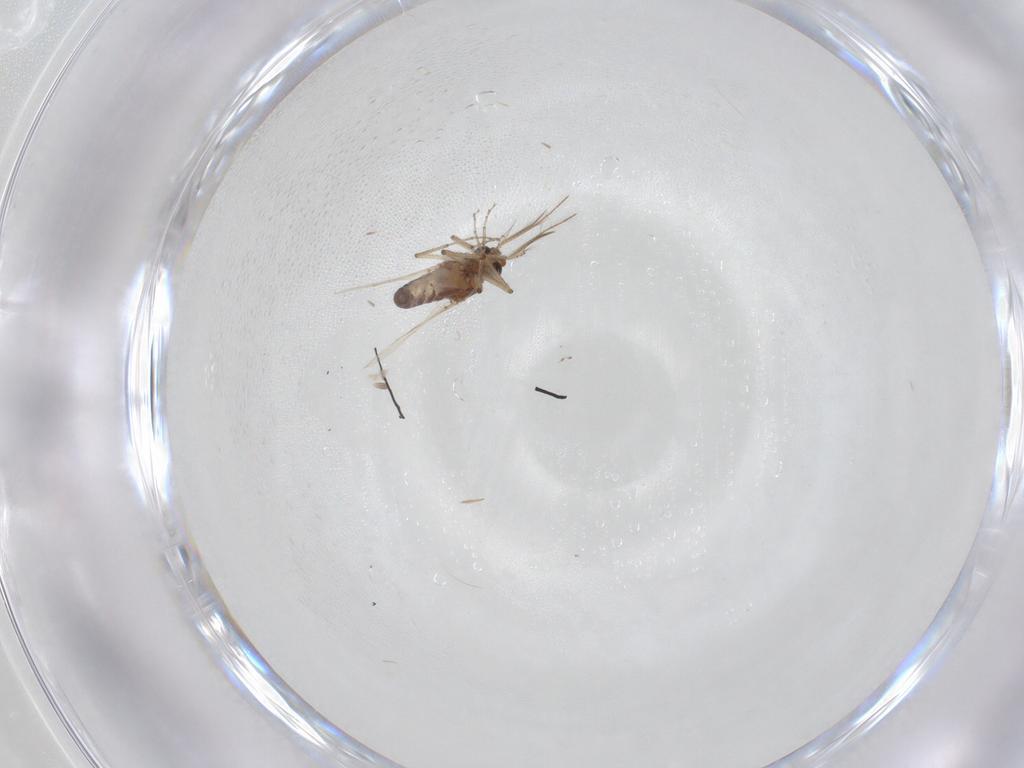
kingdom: Animalia
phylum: Arthropoda
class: Insecta
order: Diptera
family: Ceratopogonidae
